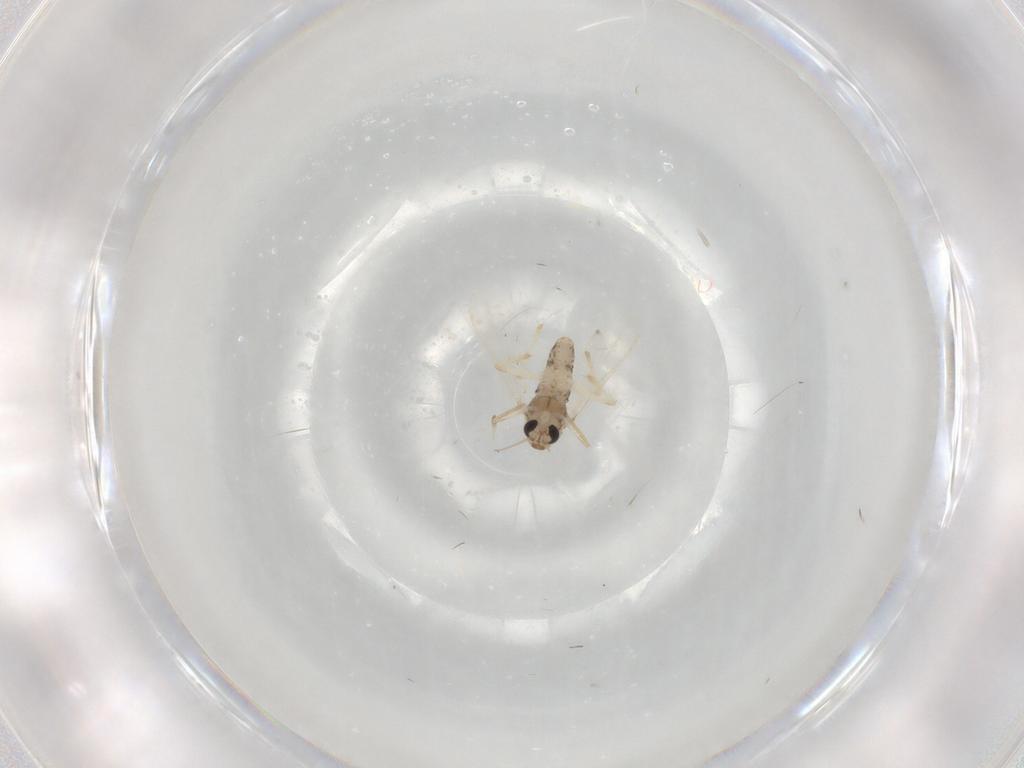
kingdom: Animalia
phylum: Arthropoda
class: Insecta
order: Diptera
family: Chironomidae
